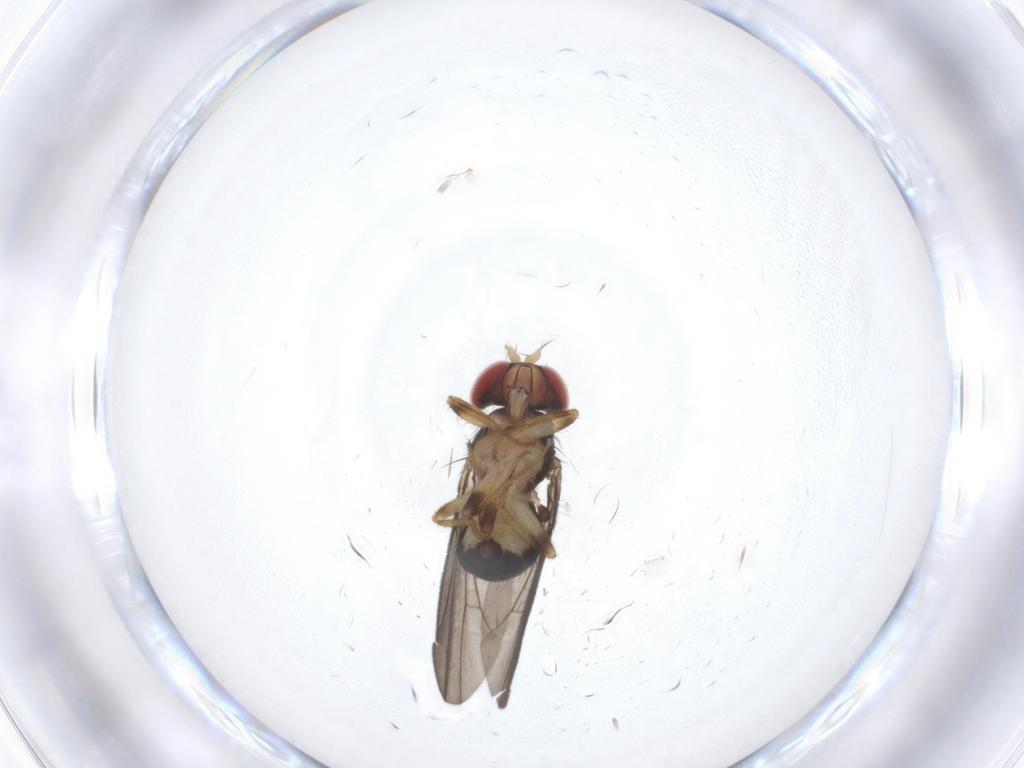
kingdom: Animalia
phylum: Arthropoda
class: Insecta
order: Diptera
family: Drosophilidae
